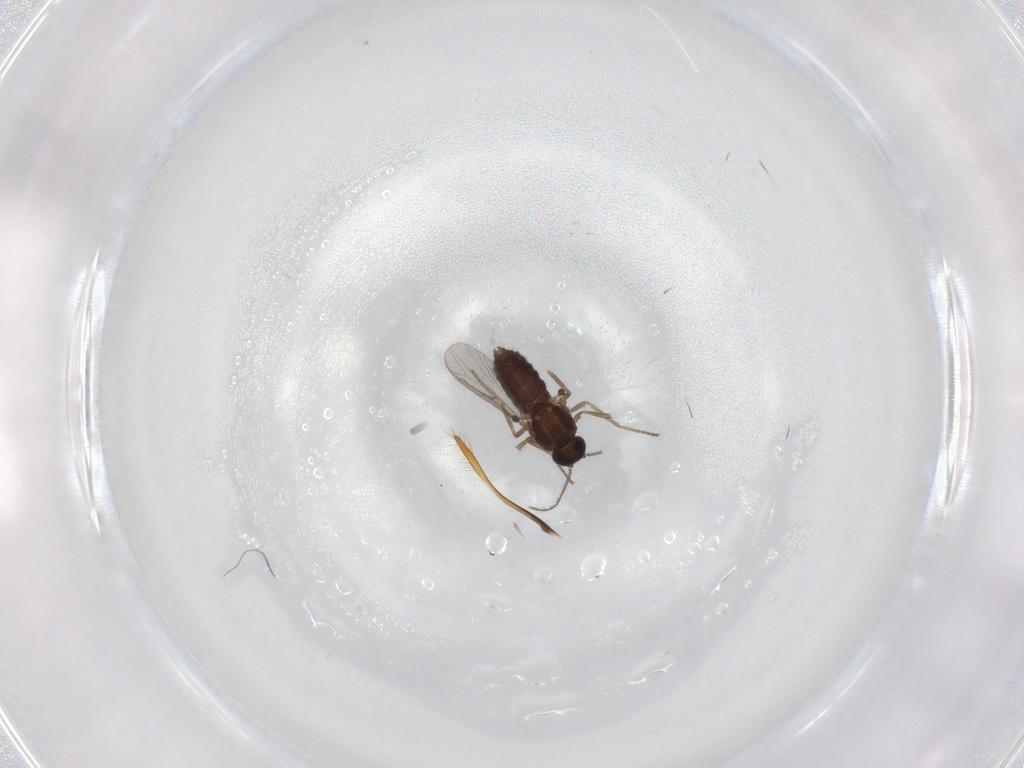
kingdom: Animalia
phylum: Arthropoda
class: Insecta
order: Diptera
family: Ceratopogonidae
